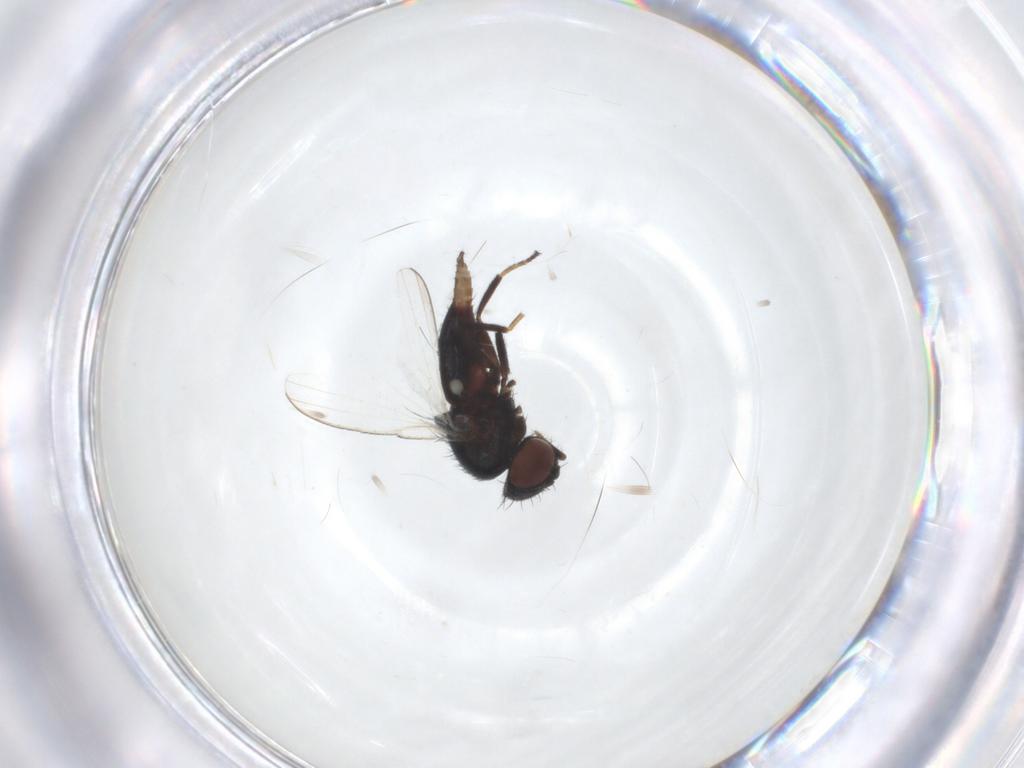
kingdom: Animalia
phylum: Arthropoda
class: Insecta
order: Diptera
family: Milichiidae
